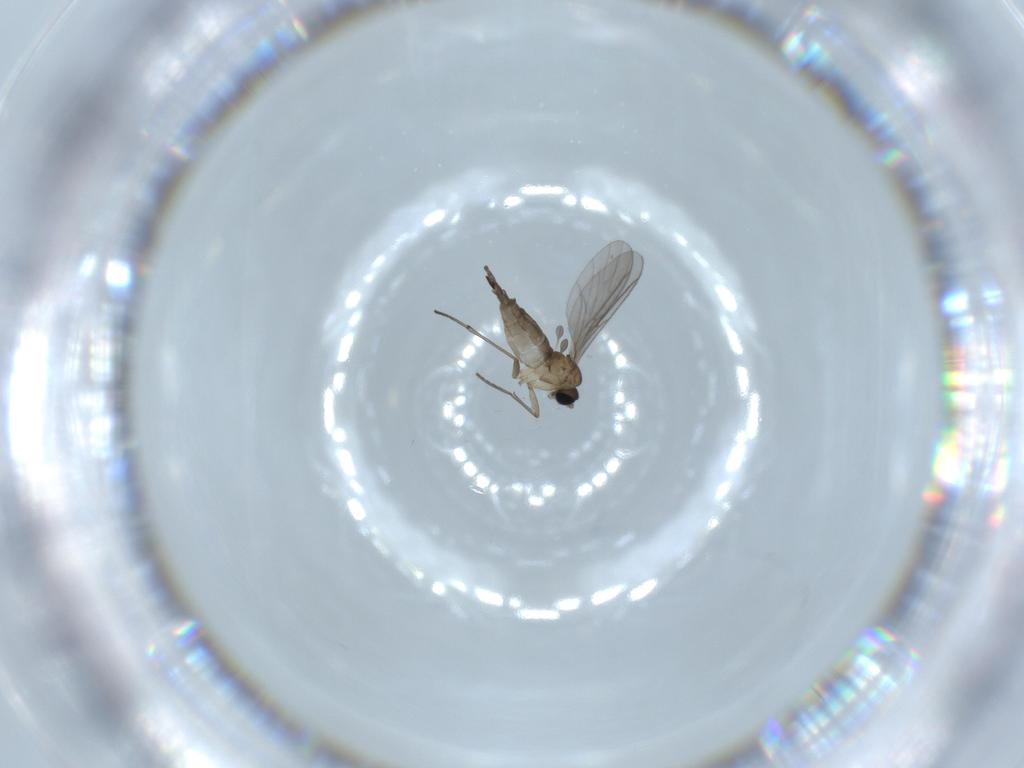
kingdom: Animalia
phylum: Arthropoda
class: Insecta
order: Diptera
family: Sciaridae
